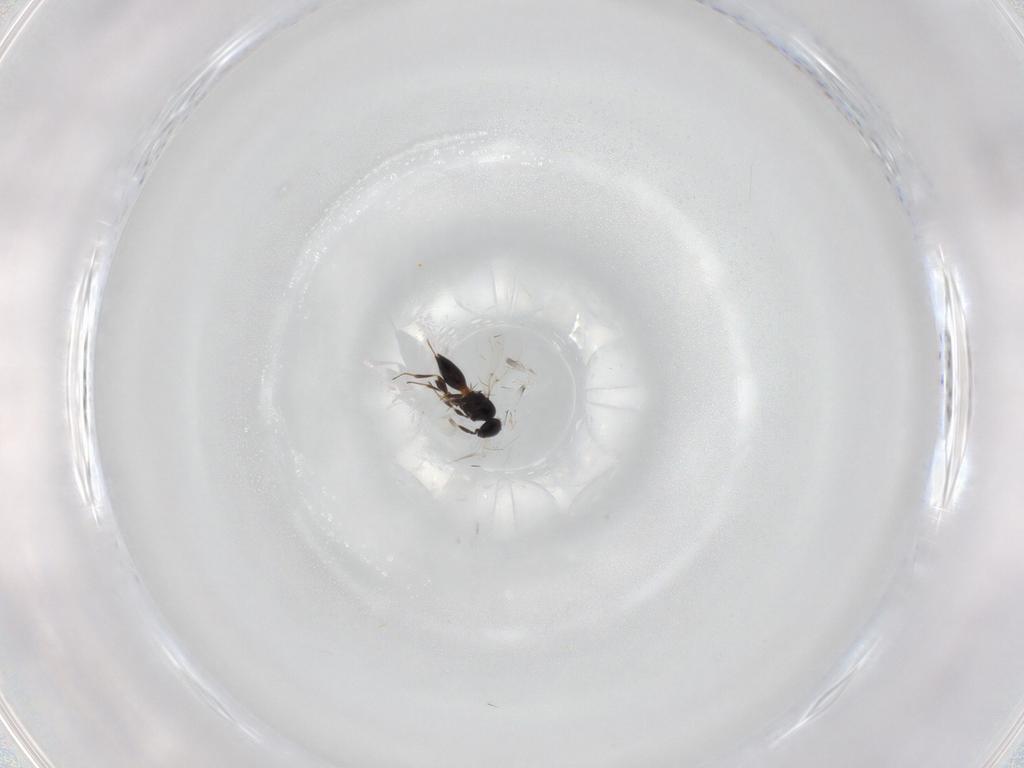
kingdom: Animalia
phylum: Arthropoda
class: Insecta
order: Hymenoptera
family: Platygastridae
